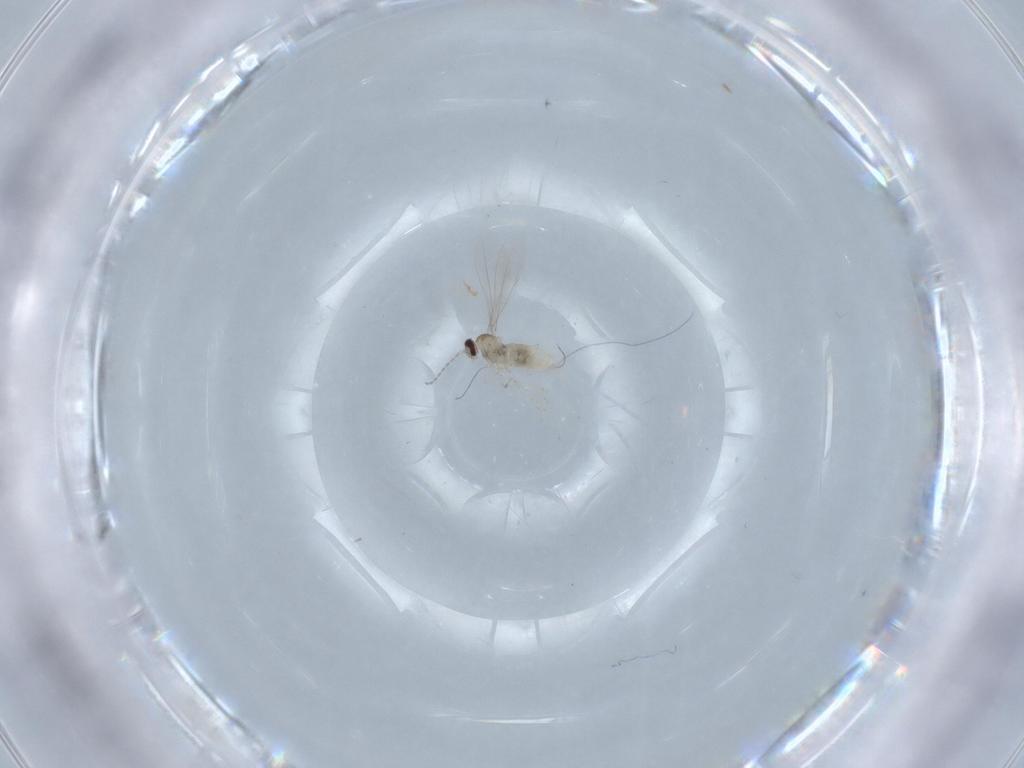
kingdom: Animalia
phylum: Arthropoda
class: Insecta
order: Diptera
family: Cecidomyiidae
